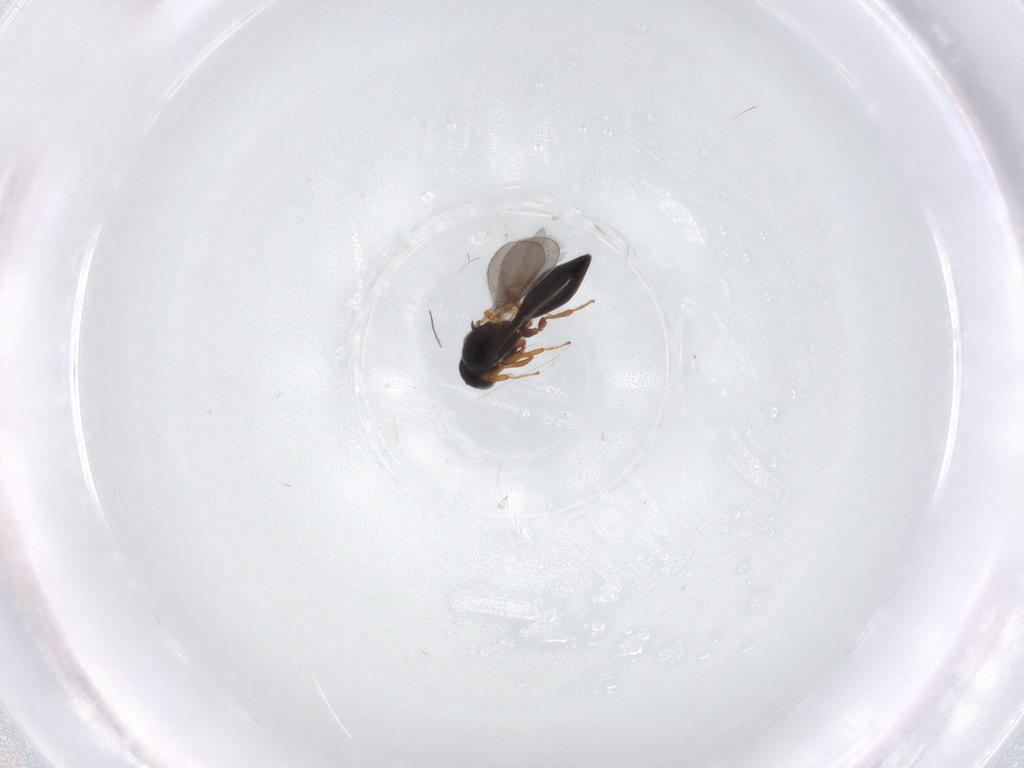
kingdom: Animalia
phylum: Arthropoda
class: Insecta
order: Hymenoptera
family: Platygastridae
